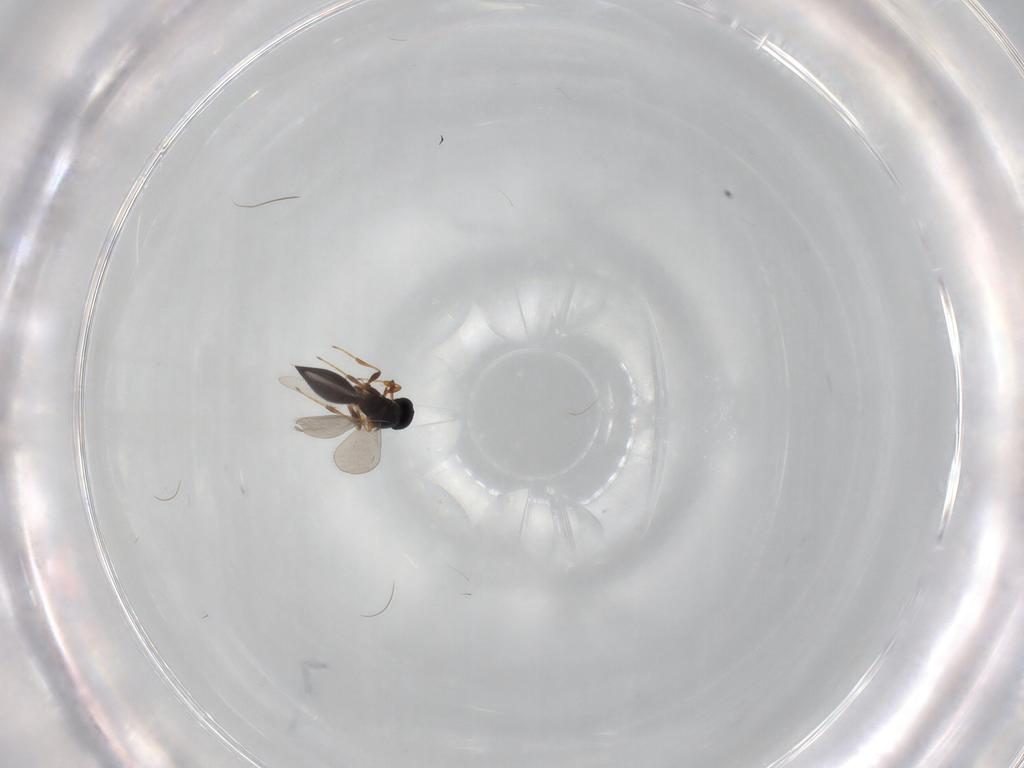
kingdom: Animalia
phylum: Arthropoda
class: Insecta
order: Hymenoptera
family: Platygastridae
